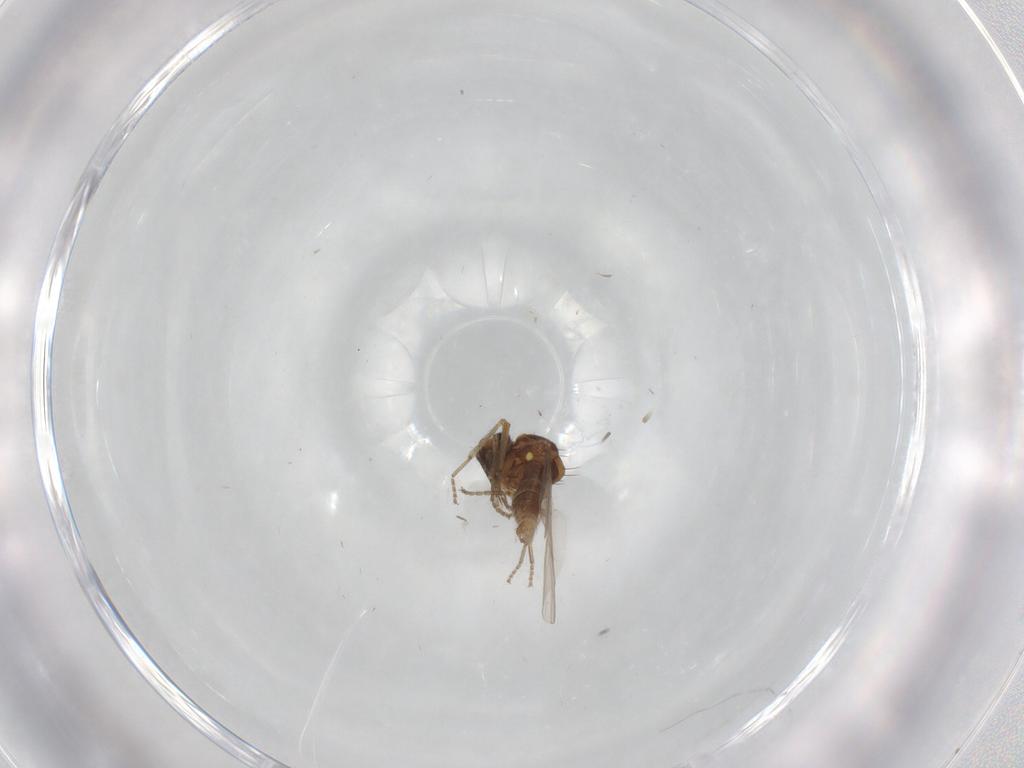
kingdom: Animalia
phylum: Arthropoda
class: Insecta
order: Diptera
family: Ceratopogonidae
